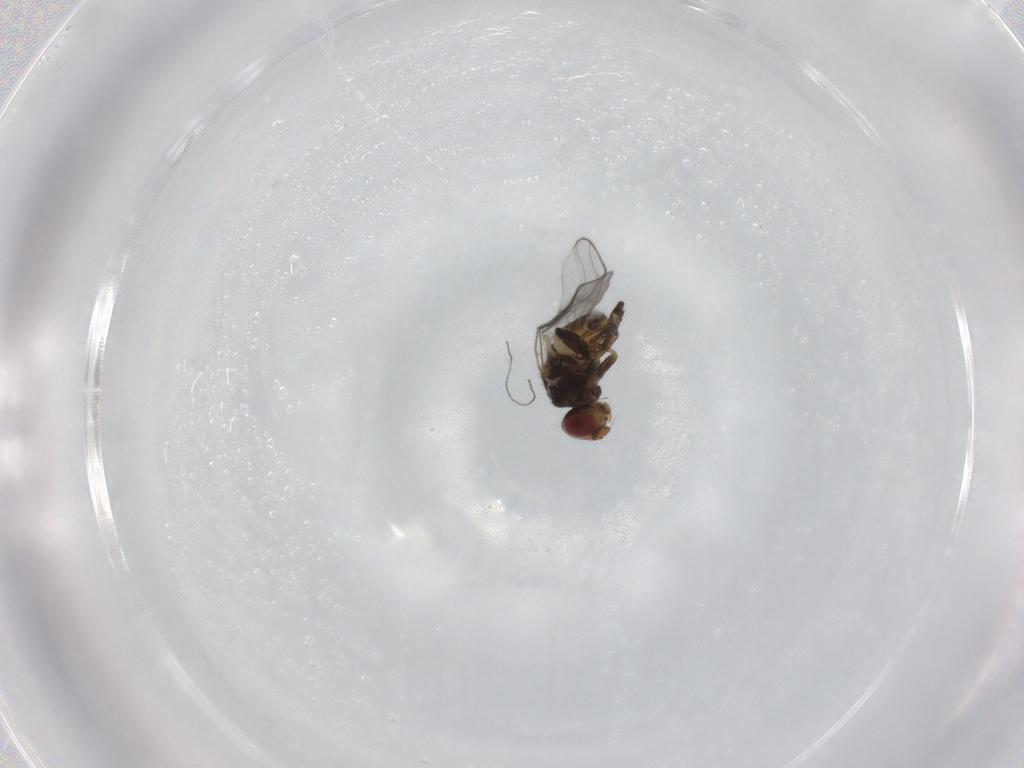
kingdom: Animalia
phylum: Arthropoda
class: Insecta
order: Diptera
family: Chloropidae
